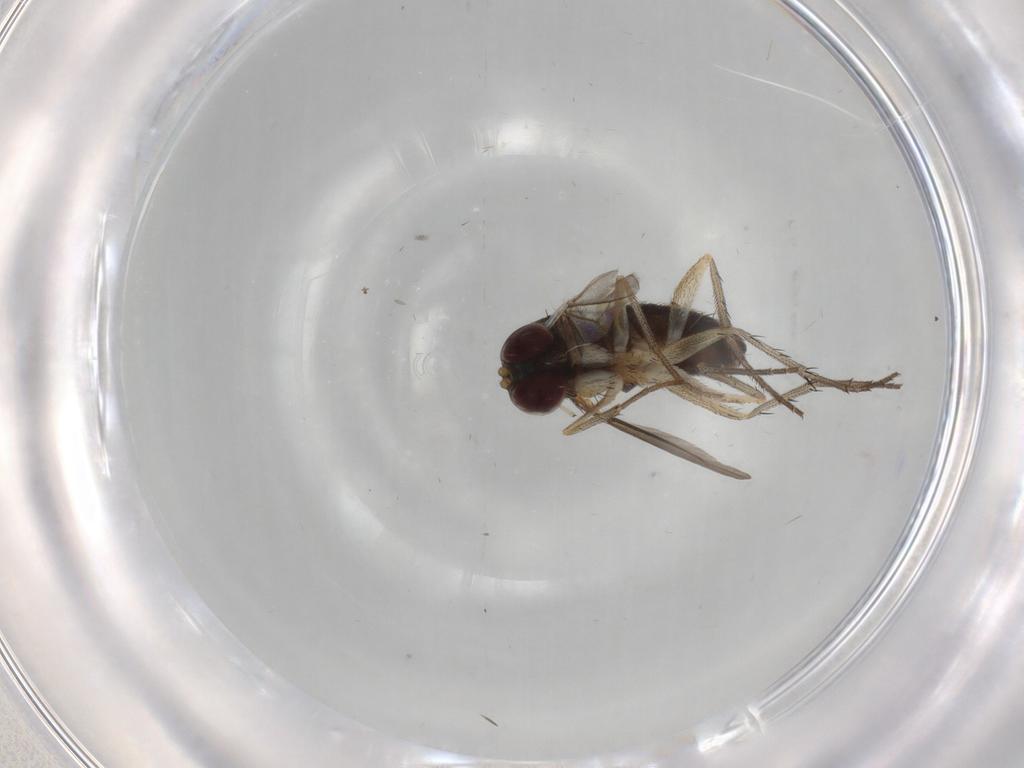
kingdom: Animalia
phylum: Arthropoda
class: Insecta
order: Diptera
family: Dolichopodidae
